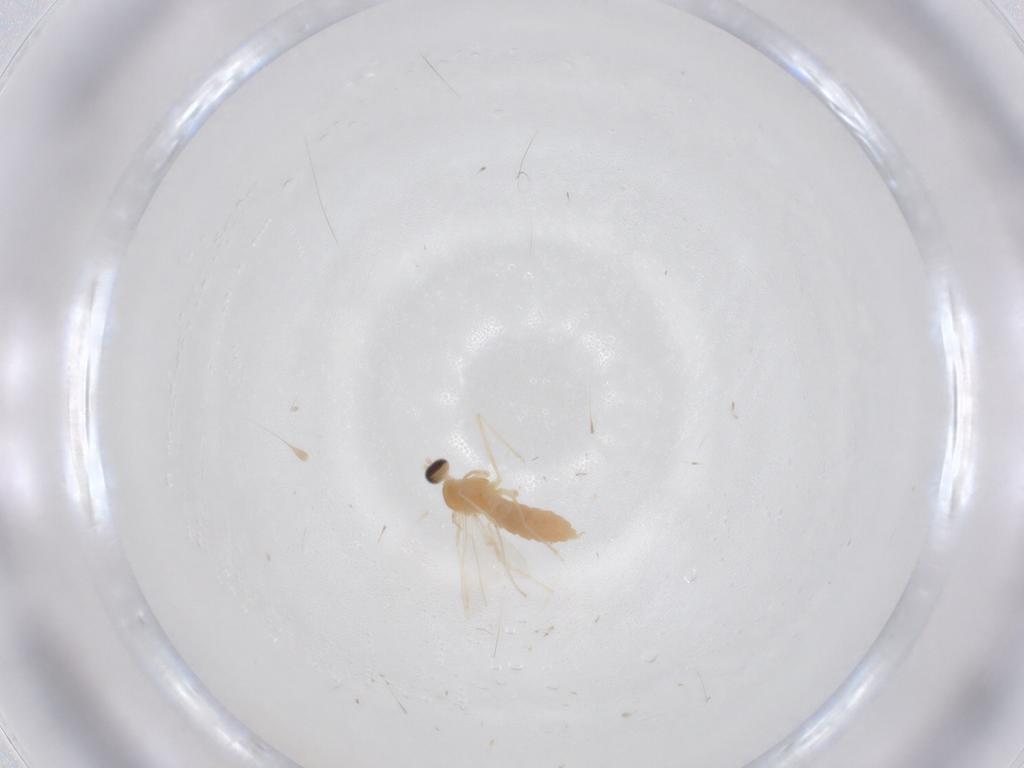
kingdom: Animalia
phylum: Arthropoda
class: Insecta
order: Diptera
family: Cecidomyiidae
